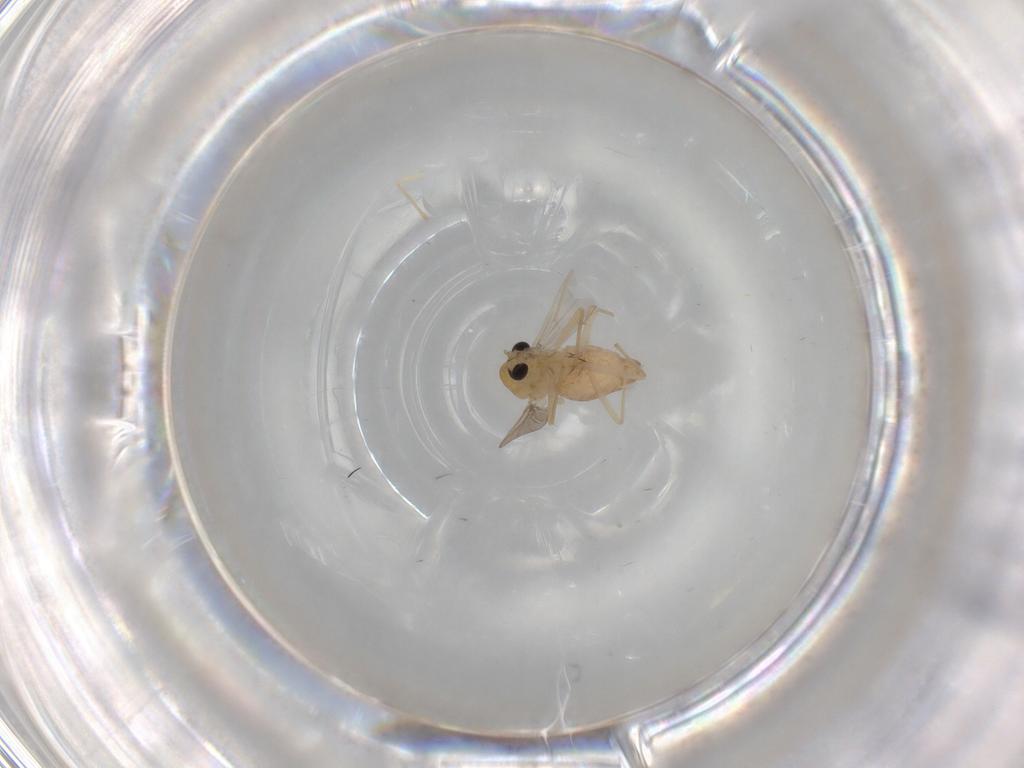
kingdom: Animalia
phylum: Arthropoda
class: Insecta
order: Diptera
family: Chironomidae
